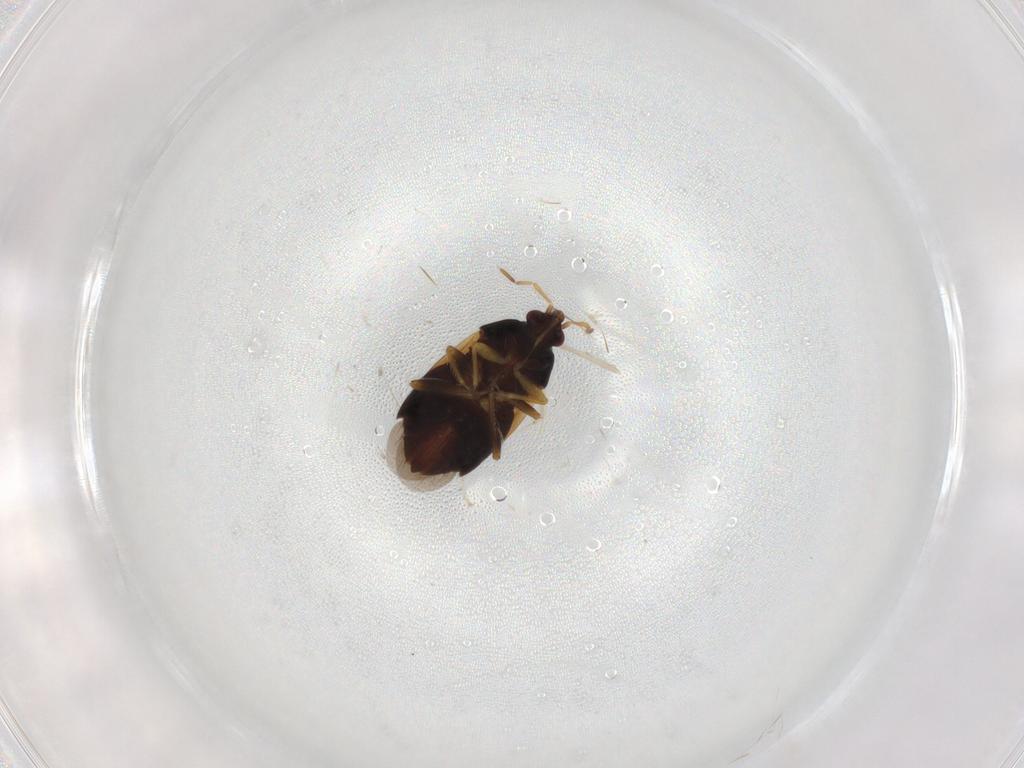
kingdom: Animalia
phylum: Arthropoda
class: Insecta
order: Hemiptera
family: Anthocoridae
